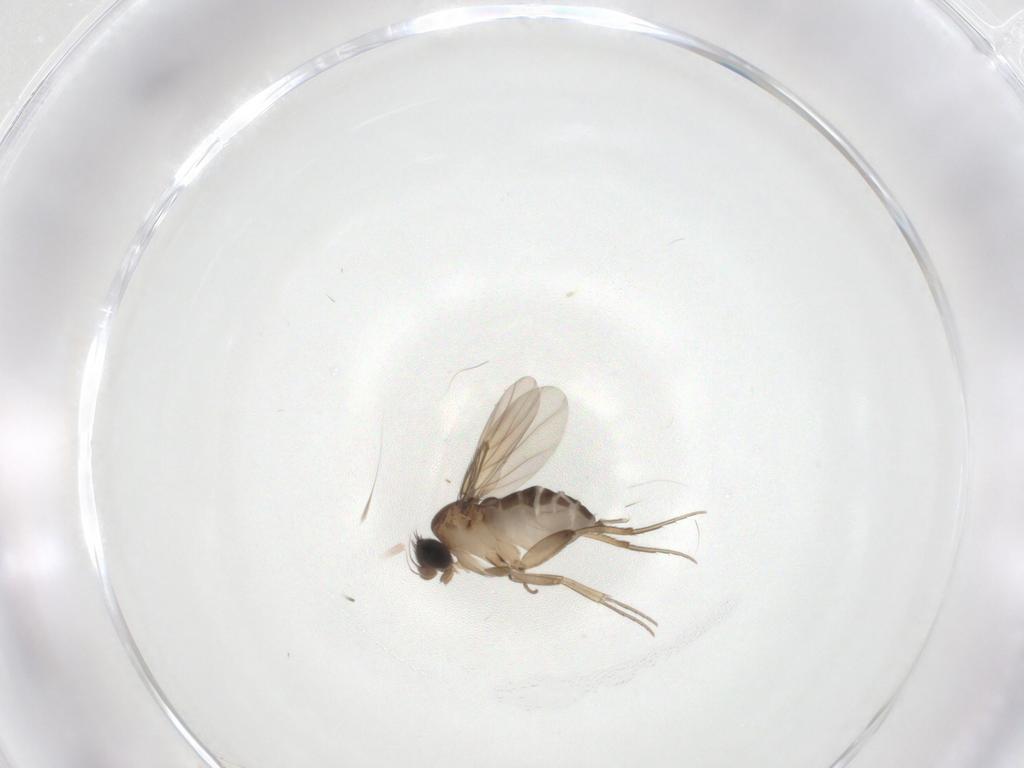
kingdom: Animalia
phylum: Arthropoda
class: Insecta
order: Diptera
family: Phoridae
